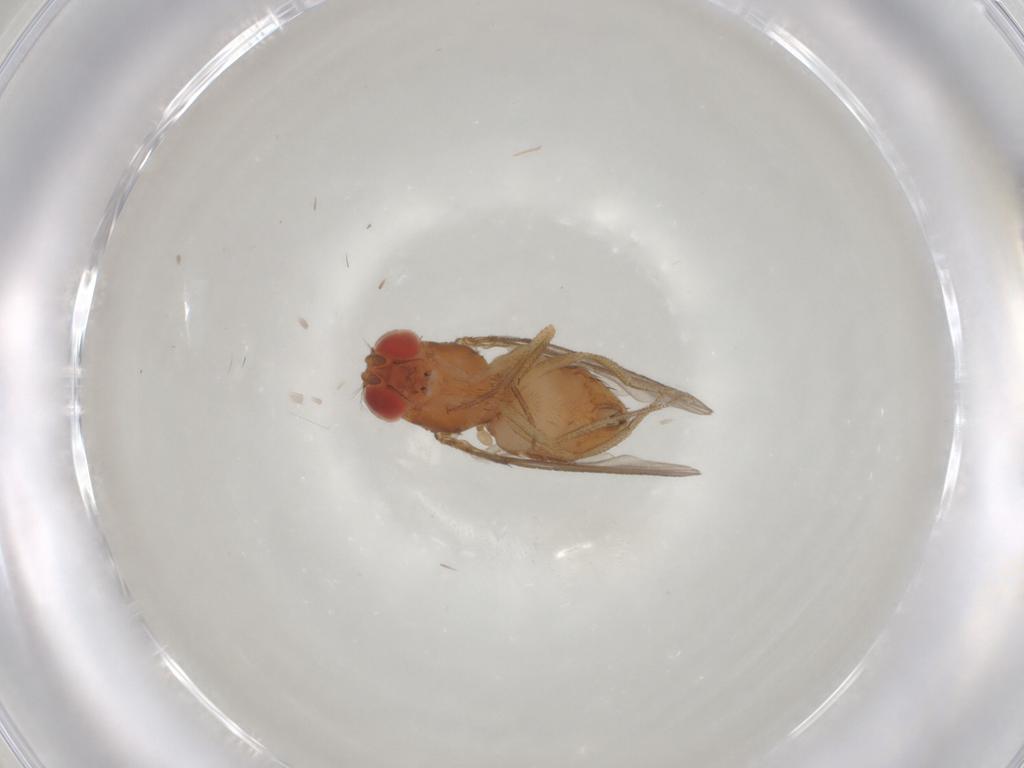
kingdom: Animalia
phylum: Arthropoda
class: Insecta
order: Diptera
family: Drosophilidae
